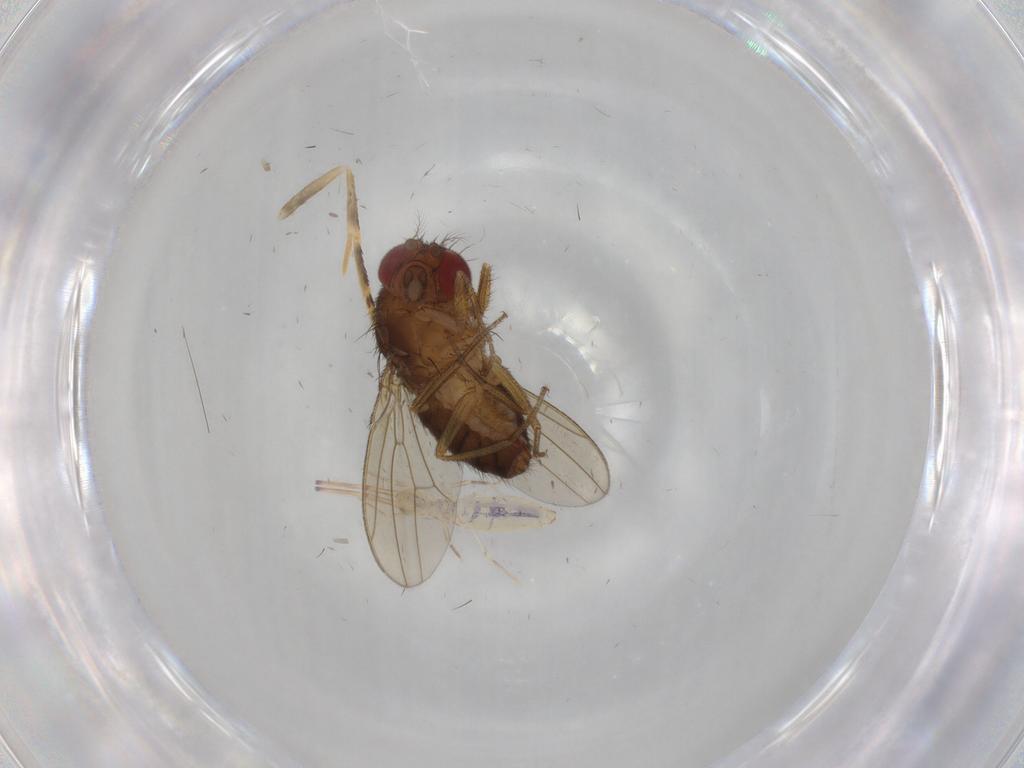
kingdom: Animalia
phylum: Arthropoda
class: Insecta
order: Diptera
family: Drosophilidae
